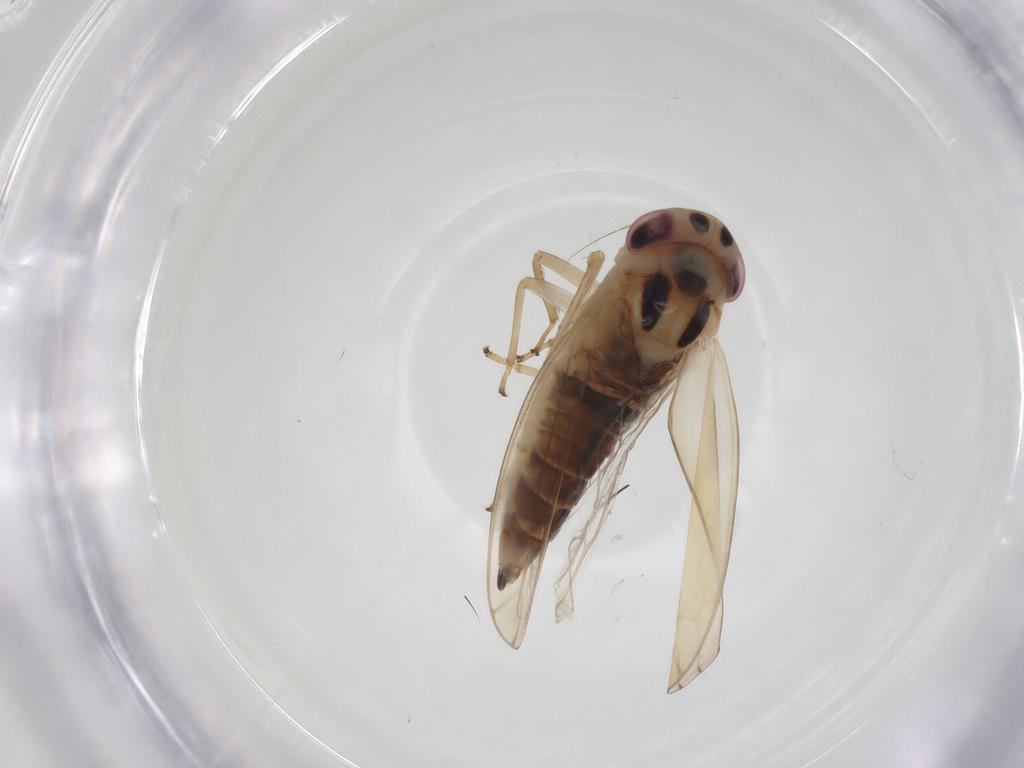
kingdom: Animalia
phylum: Arthropoda
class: Insecta
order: Hemiptera
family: Cicadellidae
